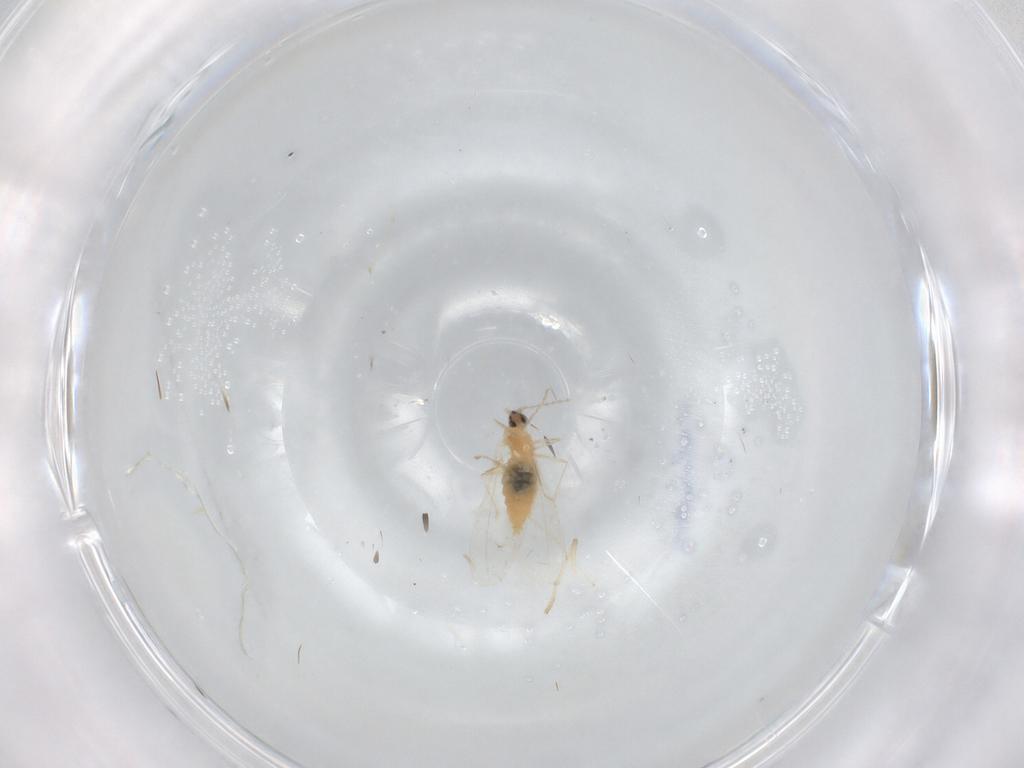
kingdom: Animalia
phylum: Arthropoda
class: Insecta
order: Diptera
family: Psychodidae
